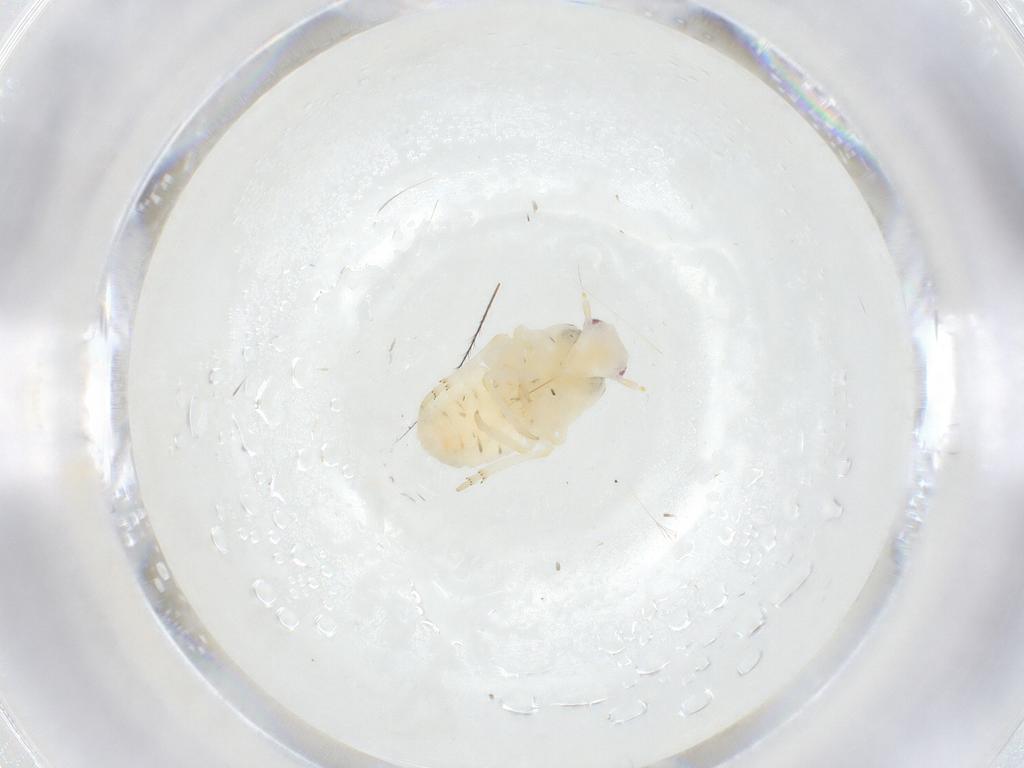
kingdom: Animalia
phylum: Arthropoda
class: Insecta
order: Hemiptera
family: Flatidae
